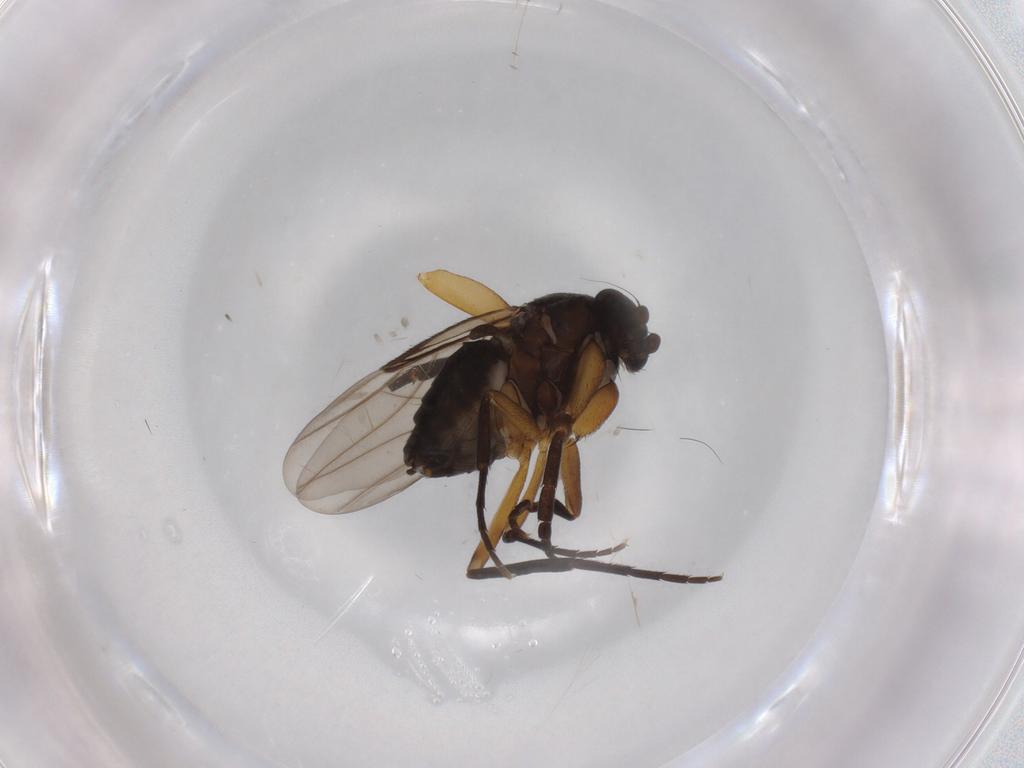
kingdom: Animalia
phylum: Arthropoda
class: Insecta
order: Diptera
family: Phoridae
